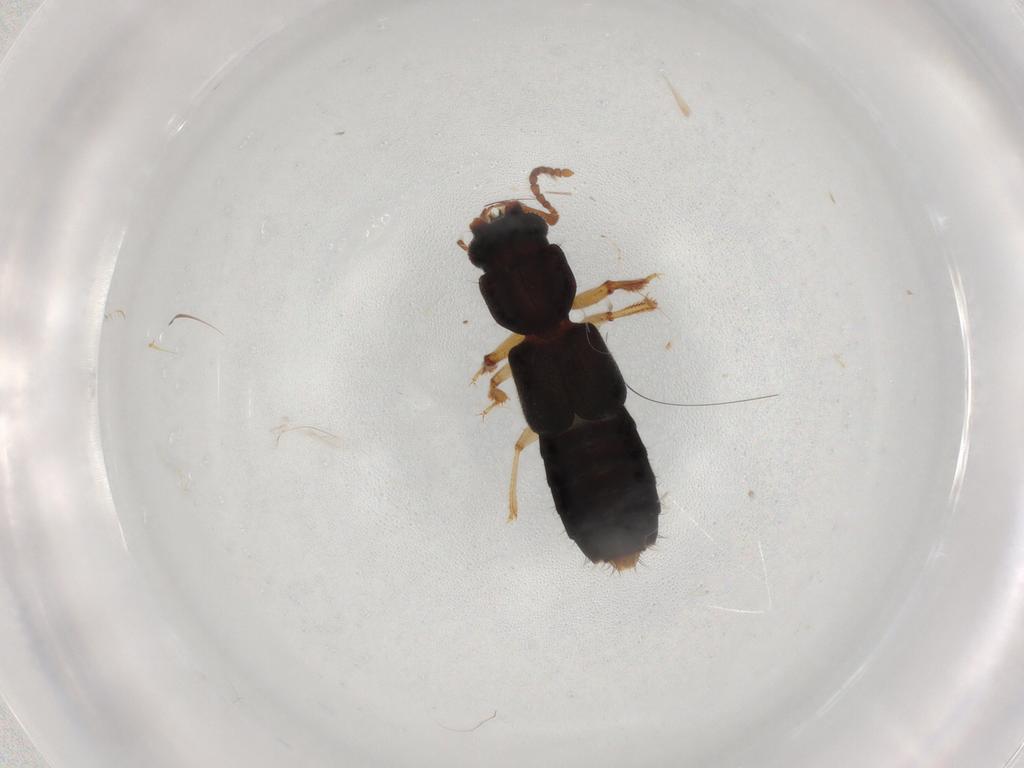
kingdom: Animalia
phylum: Arthropoda
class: Insecta
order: Coleoptera
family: Staphylinidae
